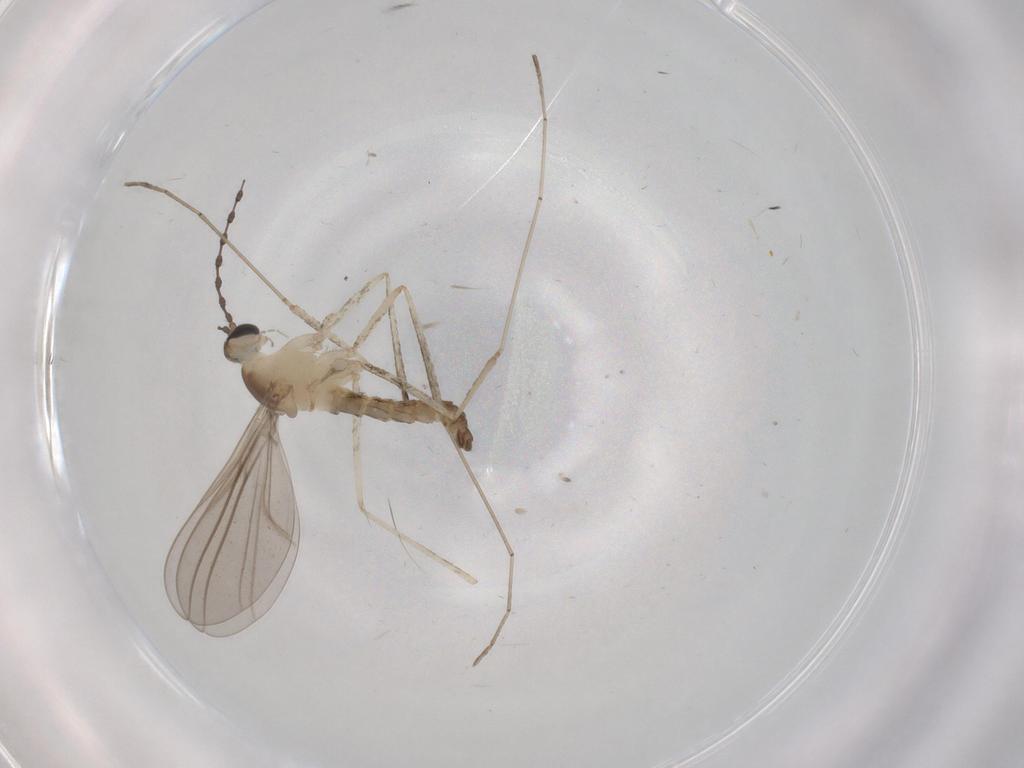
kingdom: Animalia
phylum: Arthropoda
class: Insecta
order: Diptera
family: Cecidomyiidae
